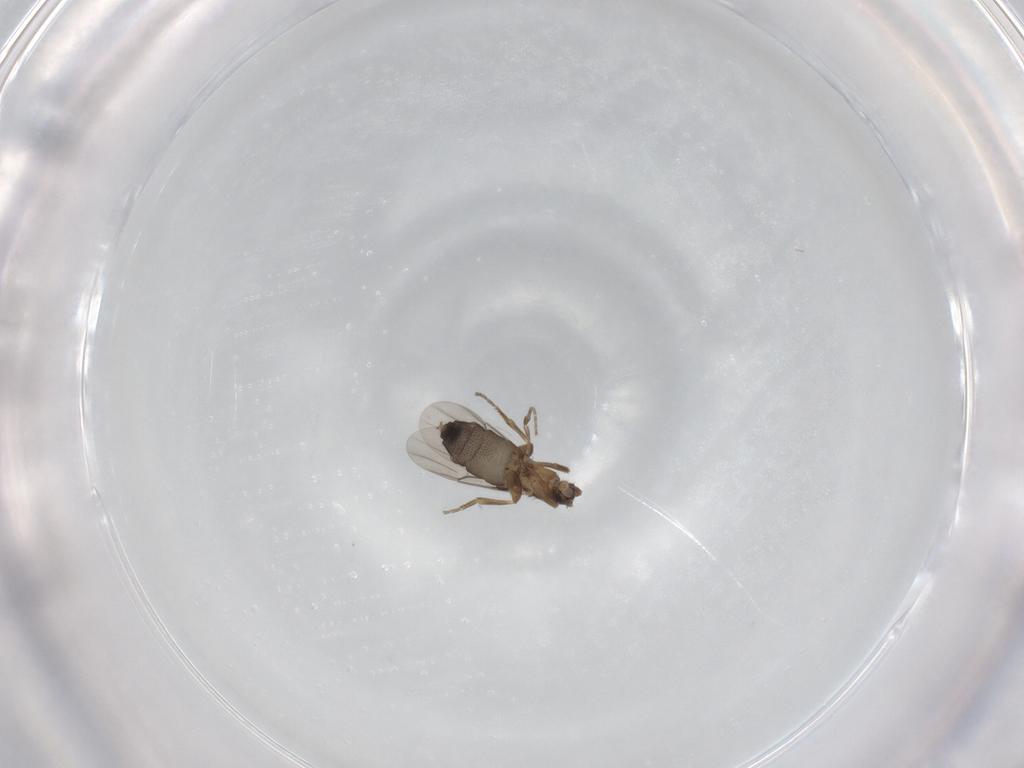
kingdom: Animalia
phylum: Arthropoda
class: Insecta
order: Diptera
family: Phoridae
